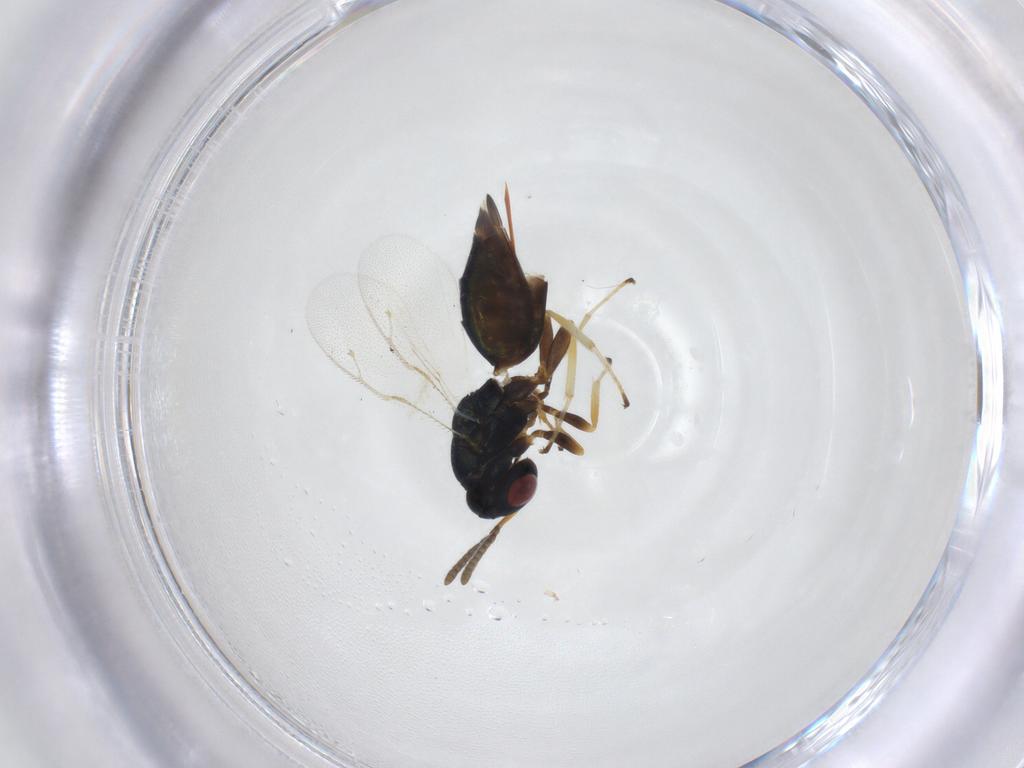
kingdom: Animalia
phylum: Arthropoda
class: Insecta
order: Hymenoptera
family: Pteromalidae
